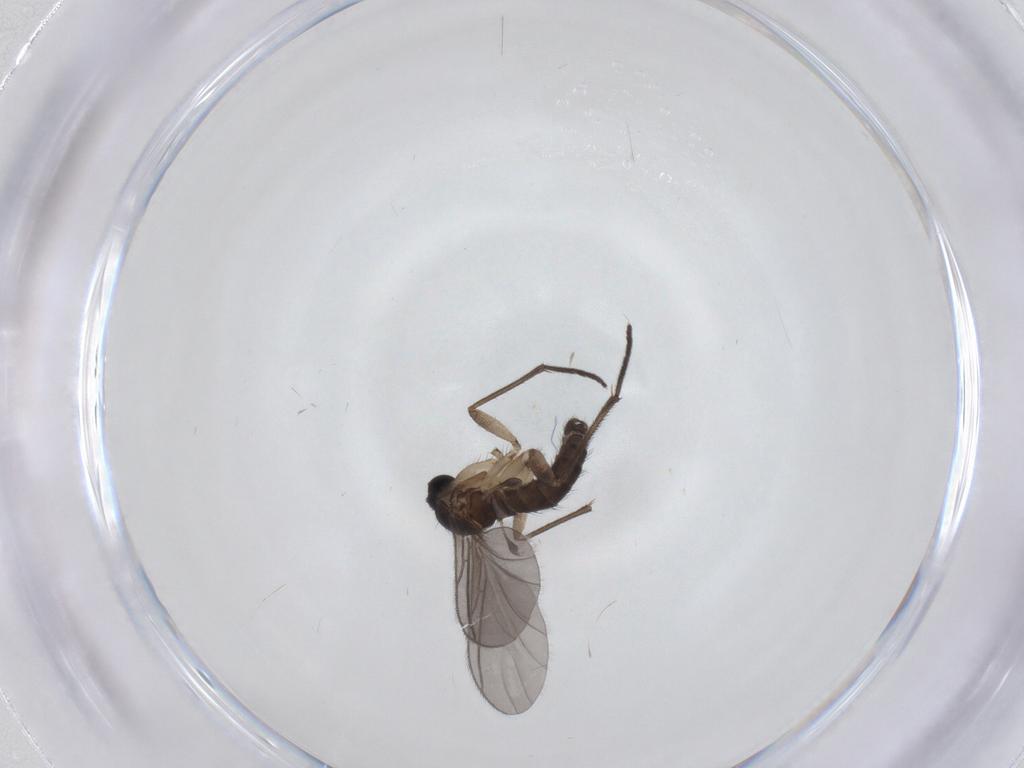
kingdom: Animalia
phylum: Arthropoda
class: Insecta
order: Diptera
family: Sciaridae
